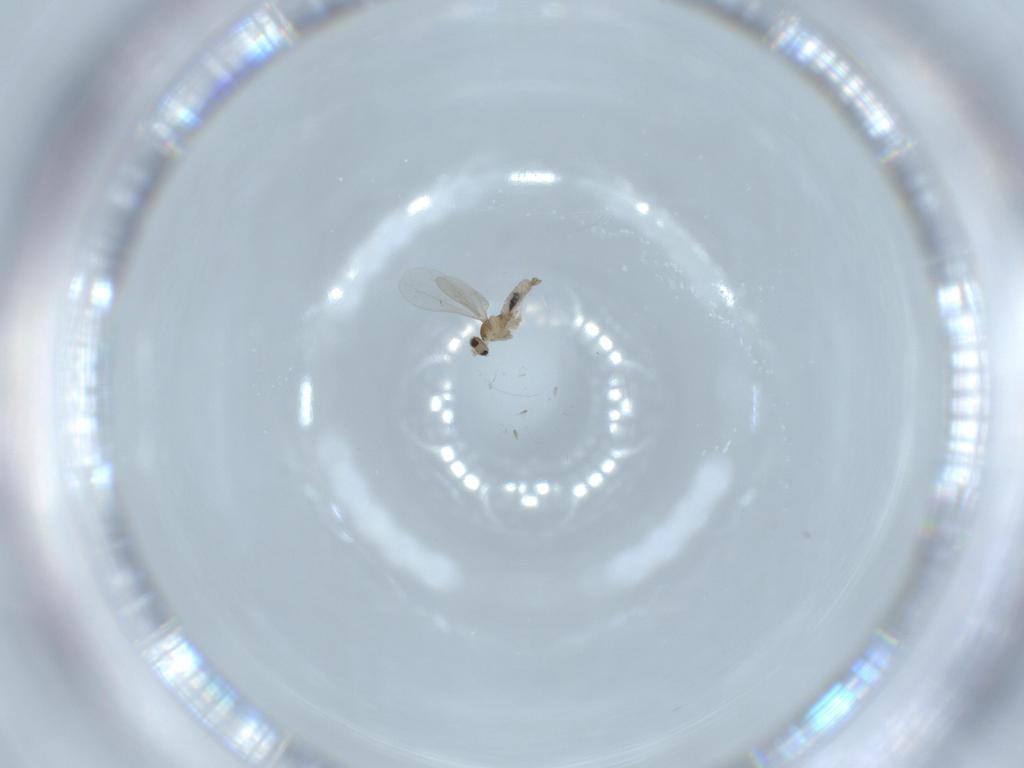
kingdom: Animalia
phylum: Arthropoda
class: Insecta
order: Diptera
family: Cecidomyiidae
